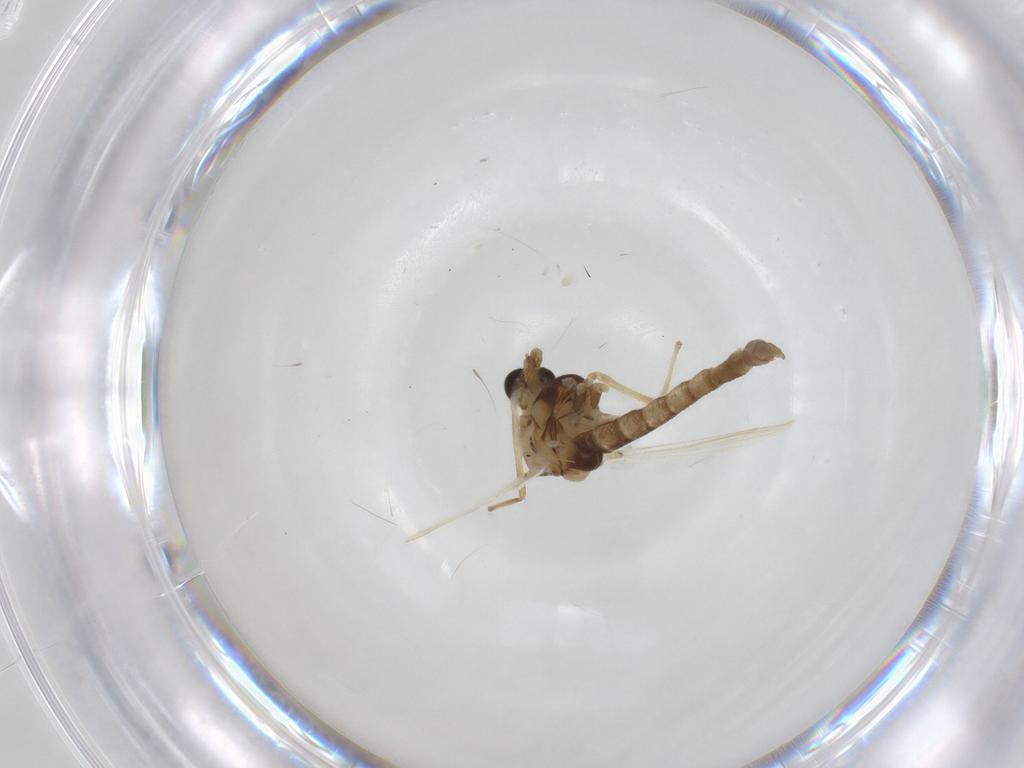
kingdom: Animalia
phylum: Arthropoda
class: Insecta
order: Diptera
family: Chironomidae
